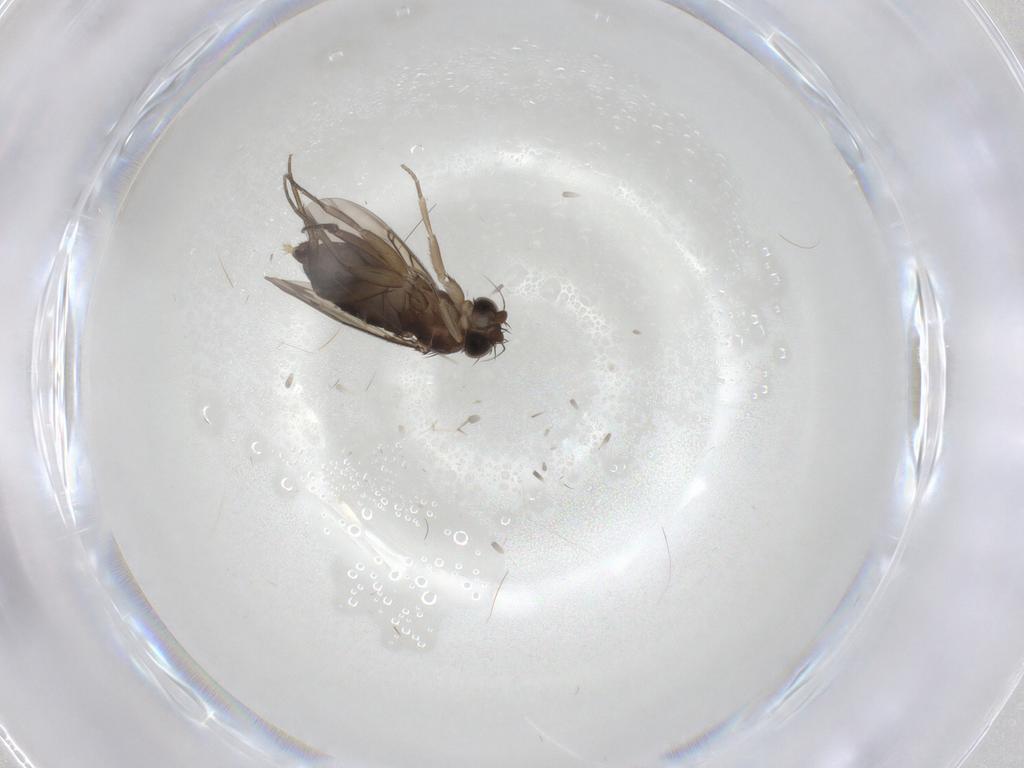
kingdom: Animalia
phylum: Arthropoda
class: Insecta
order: Diptera
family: Phoridae
